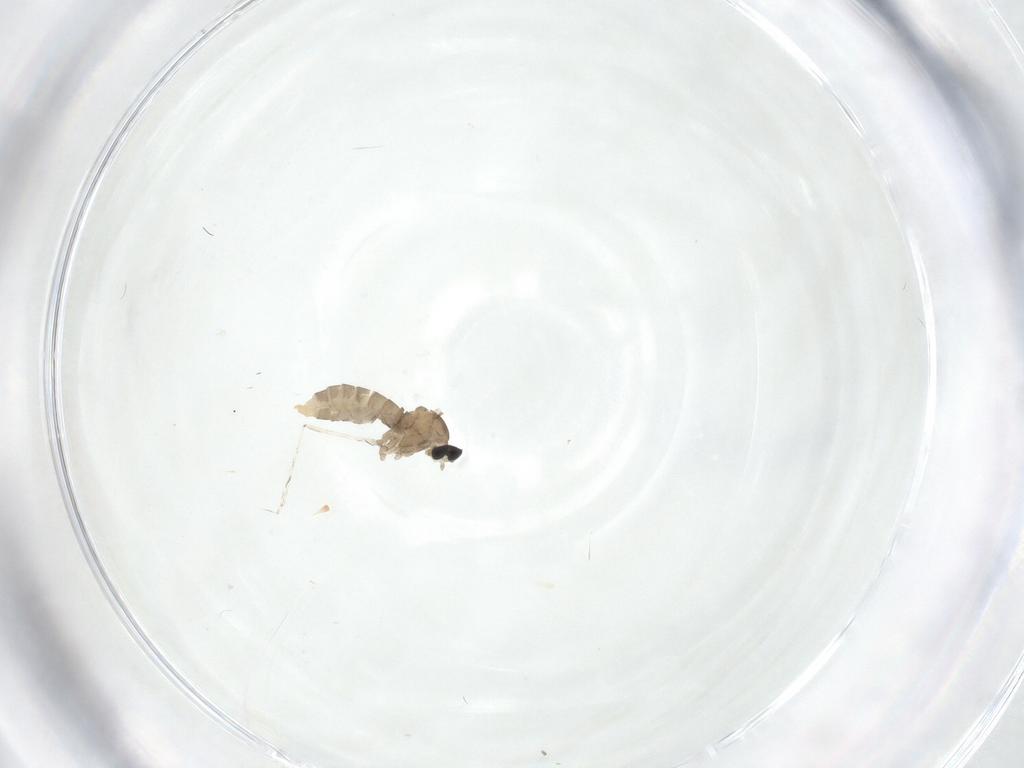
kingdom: Animalia
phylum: Arthropoda
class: Insecta
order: Diptera
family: Cecidomyiidae
